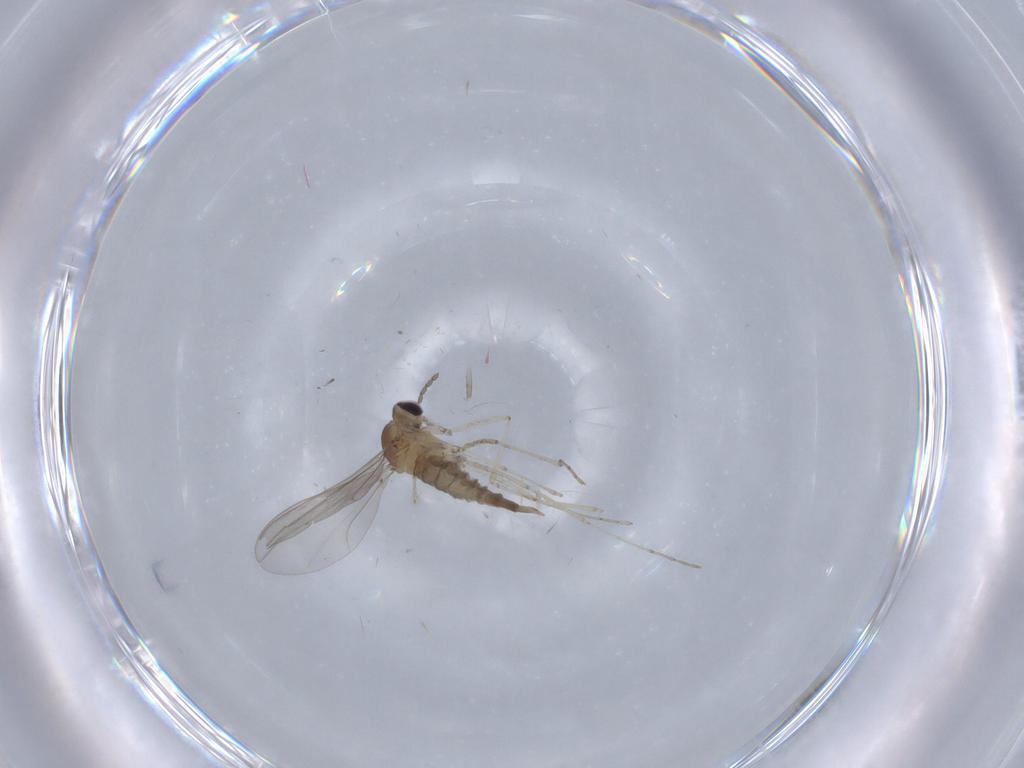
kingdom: Animalia
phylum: Arthropoda
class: Insecta
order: Diptera
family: Cecidomyiidae
